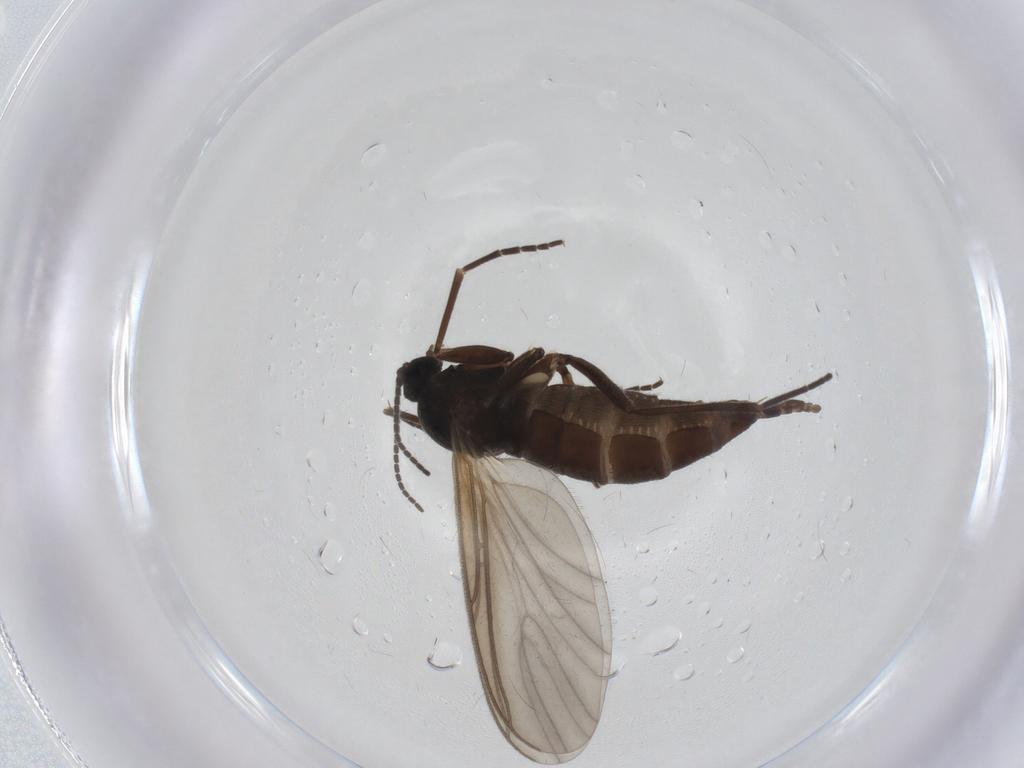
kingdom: Animalia
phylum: Arthropoda
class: Insecta
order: Diptera
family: Sciaridae
